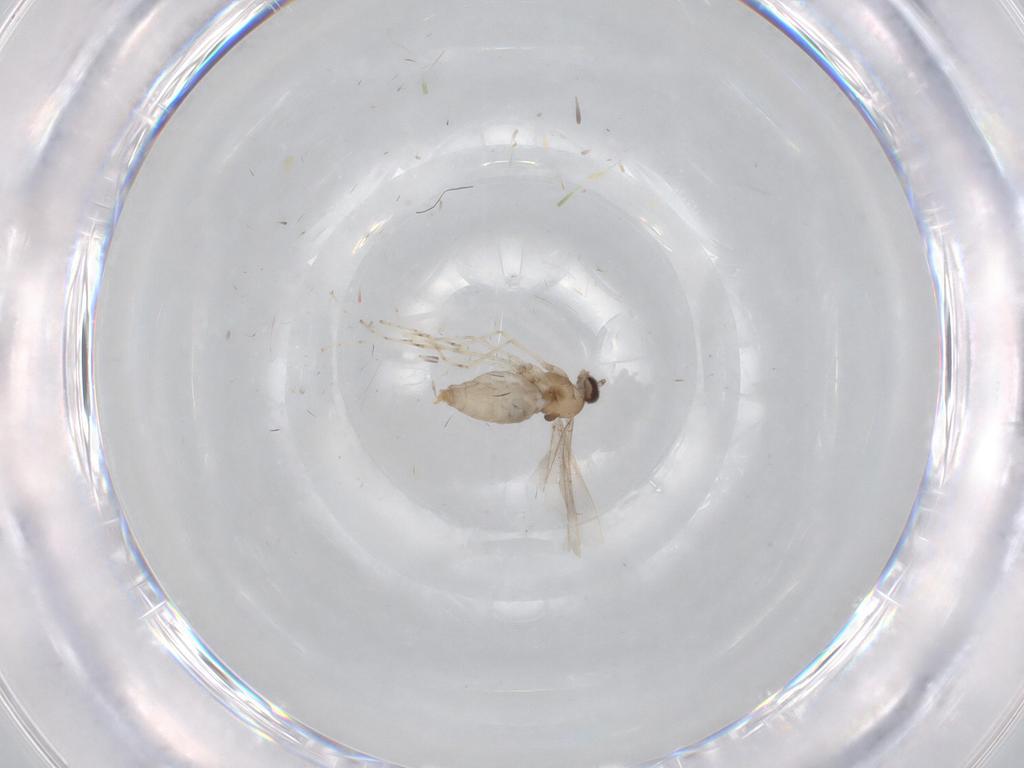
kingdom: Animalia
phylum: Arthropoda
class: Insecta
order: Diptera
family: Cecidomyiidae
